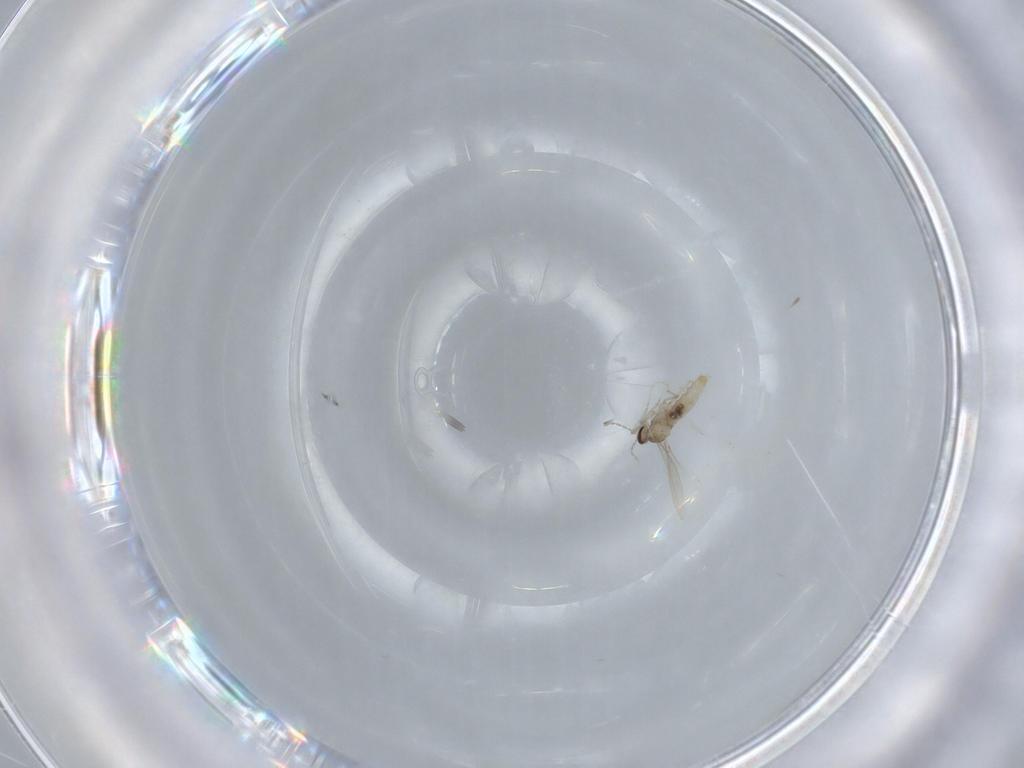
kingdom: Animalia
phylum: Arthropoda
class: Insecta
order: Diptera
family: Cecidomyiidae
